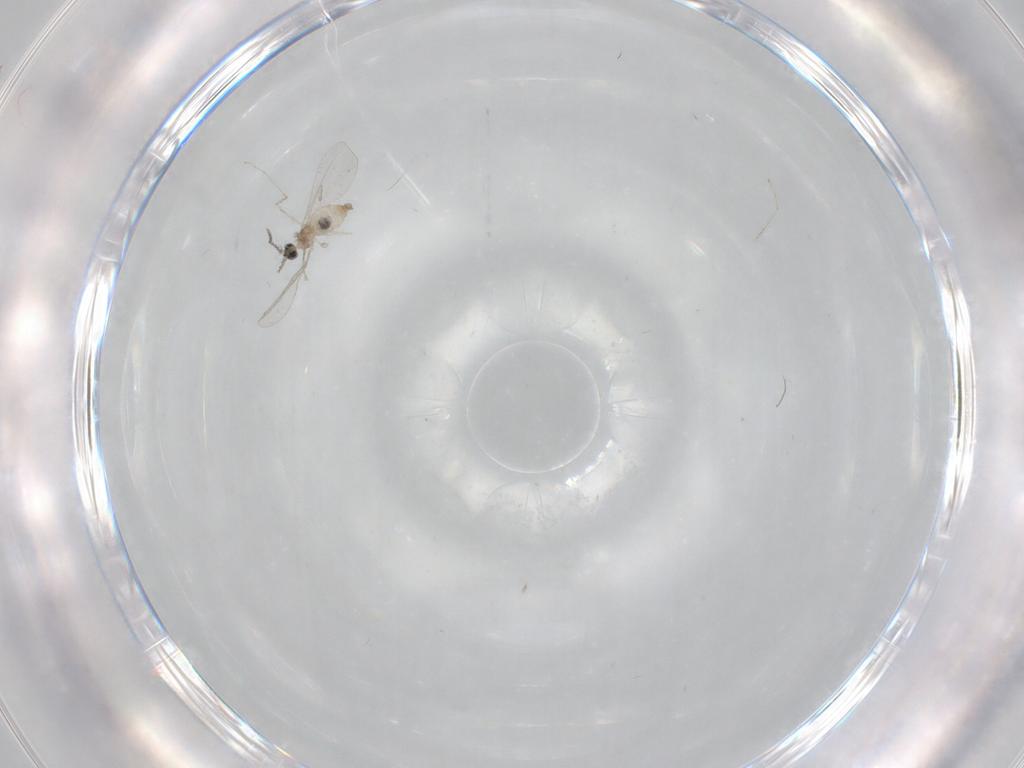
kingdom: Animalia
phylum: Arthropoda
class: Insecta
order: Diptera
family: Cecidomyiidae
